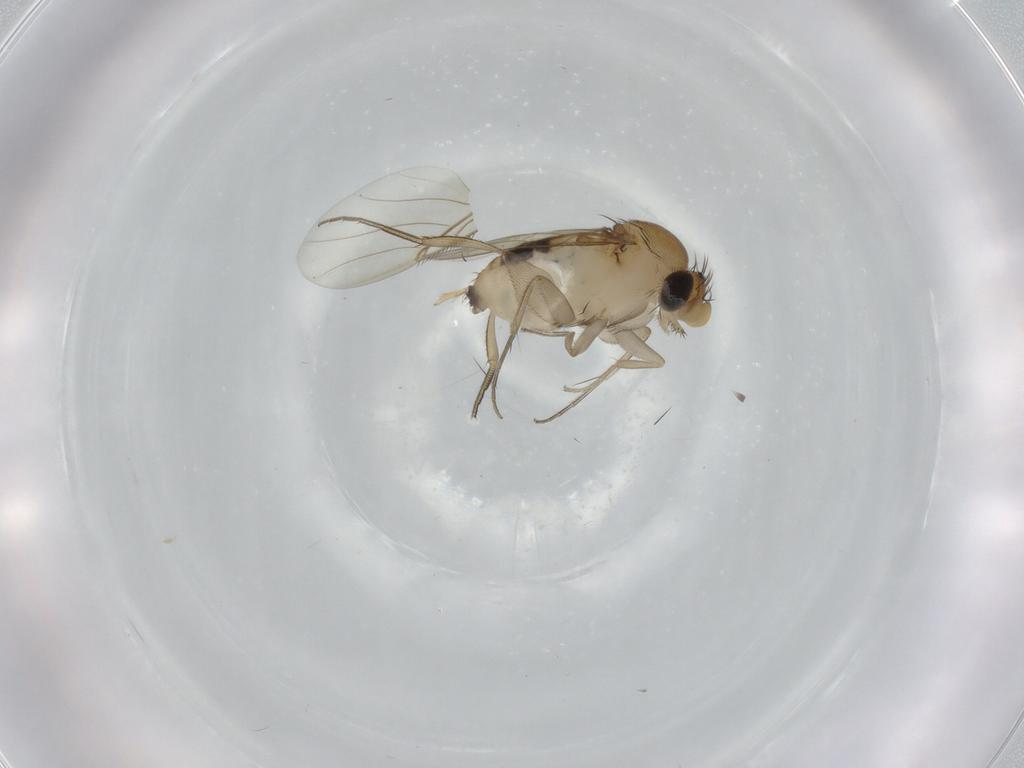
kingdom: Animalia
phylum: Arthropoda
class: Insecta
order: Diptera
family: Phoridae
